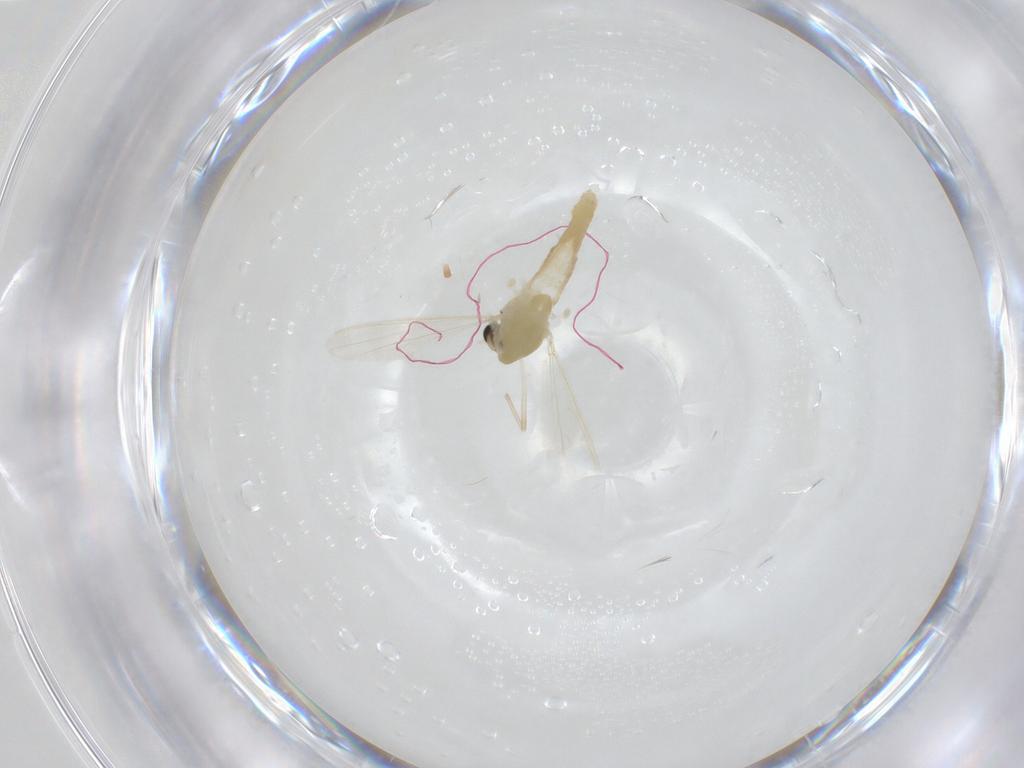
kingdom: Animalia
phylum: Arthropoda
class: Insecta
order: Diptera
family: Chironomidae
